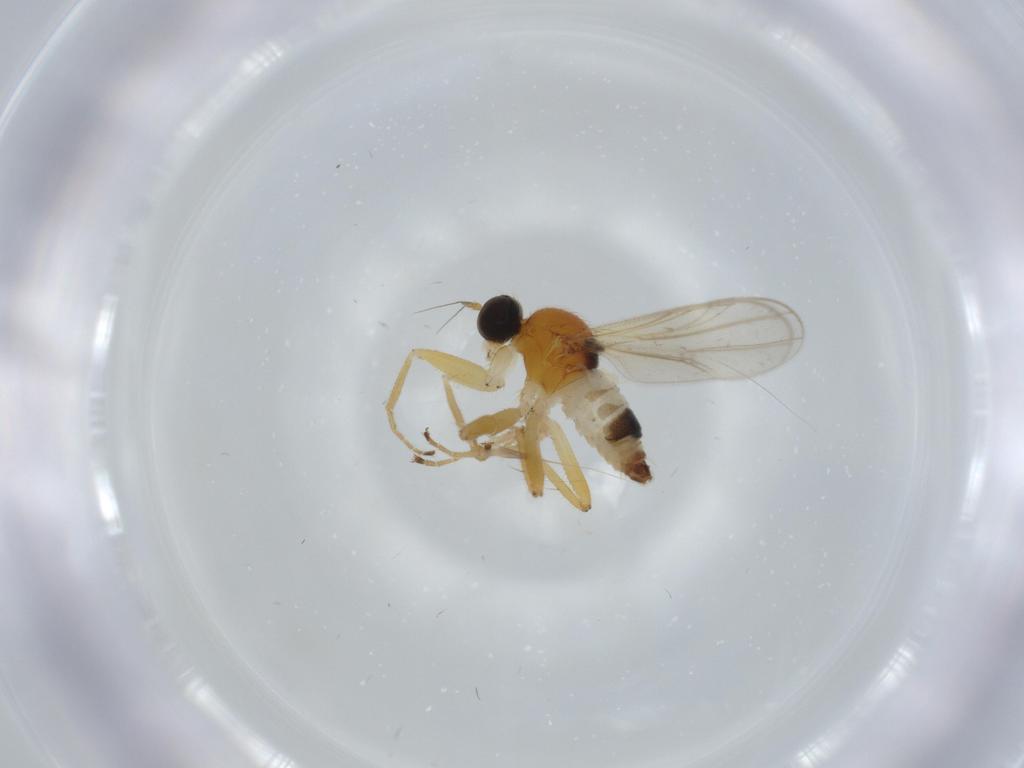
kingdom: Animalia
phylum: Arthropoda
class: Insecta
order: Diptera
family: Hybotidae
